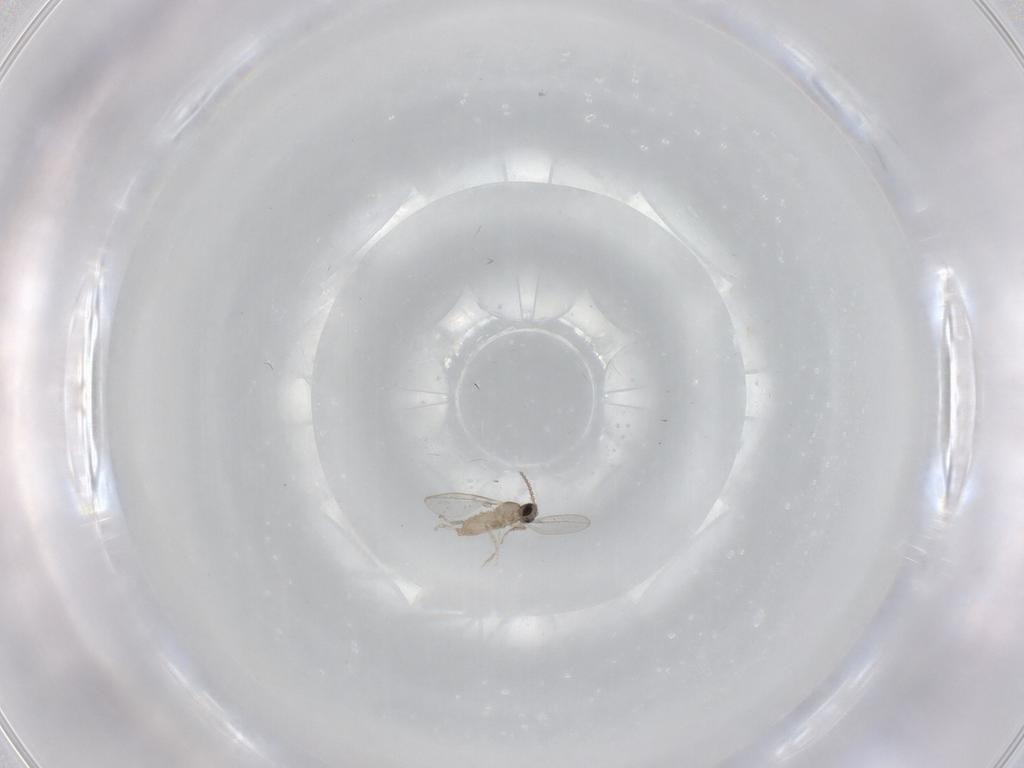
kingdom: Animalia
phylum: Arthropoda
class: Insecta
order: Diptera
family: Cecidomyiidae
